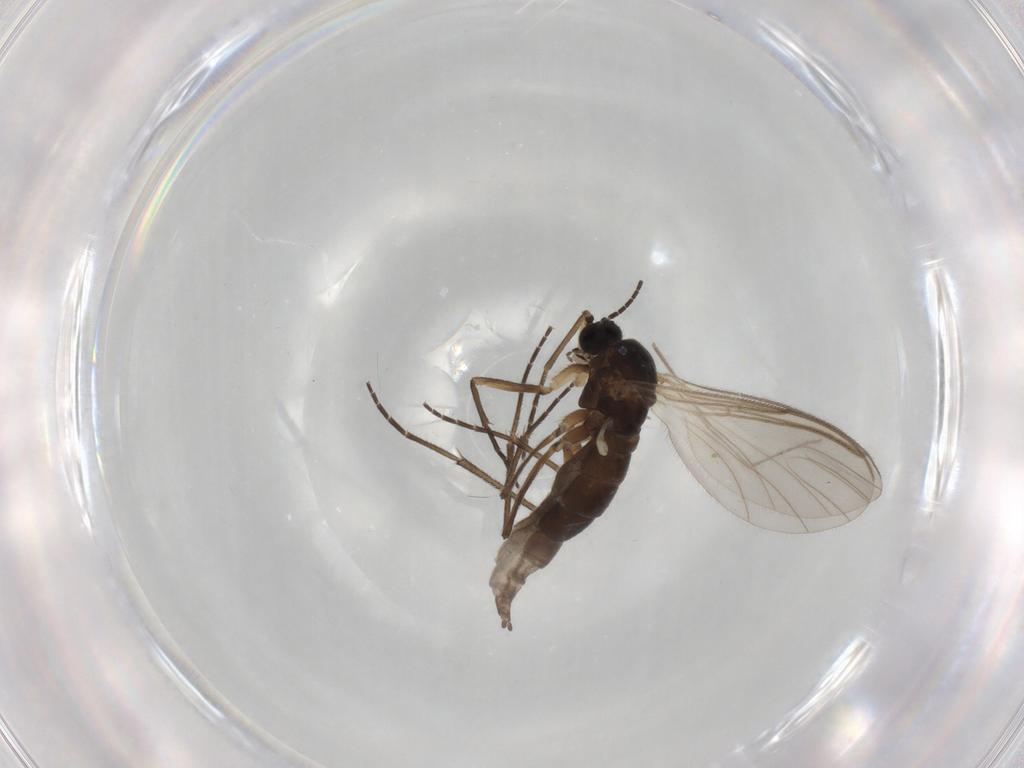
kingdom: Animalia
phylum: Arthropoda
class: Insecta
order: Diptera
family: Sciaridae
